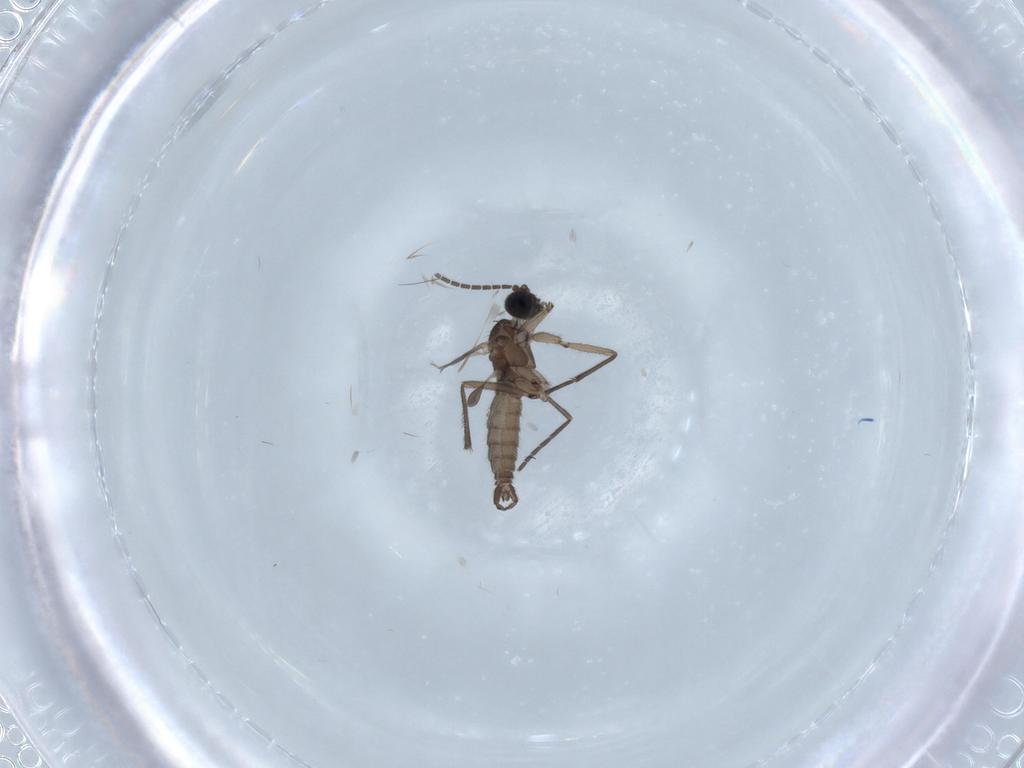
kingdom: Animalia
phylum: Arthropoda
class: Insecta
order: Diptera
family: Sciaridae
